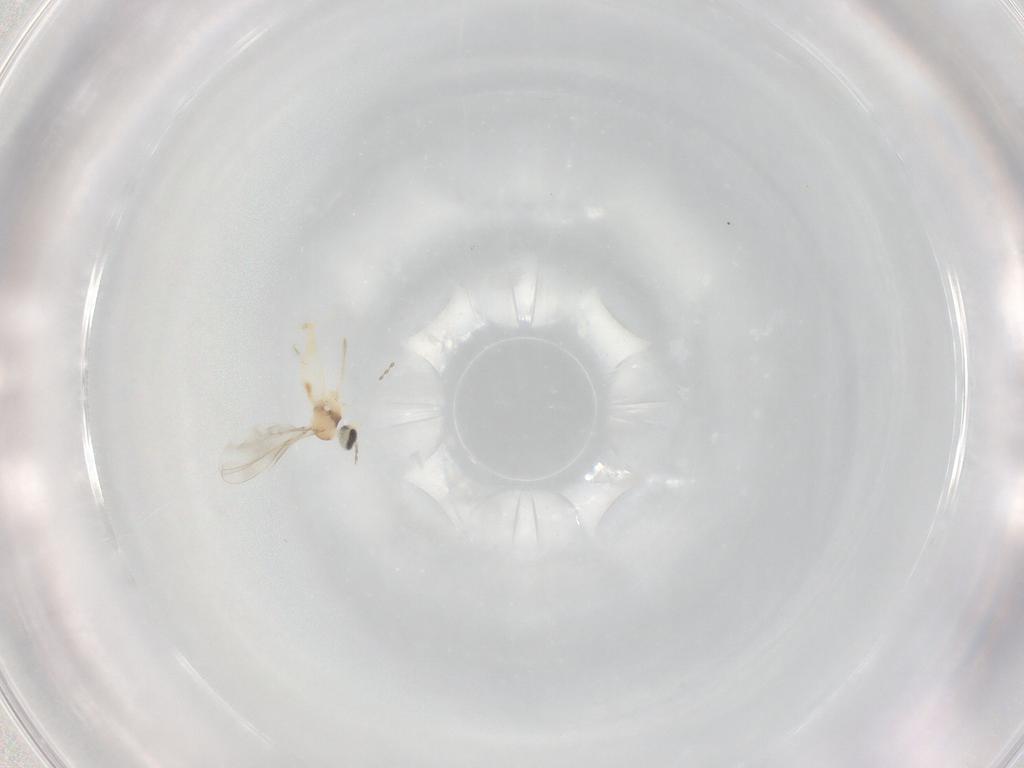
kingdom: Animalia
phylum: Arthropoda
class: Insecta
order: Diptera
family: Cecidomyiidae
